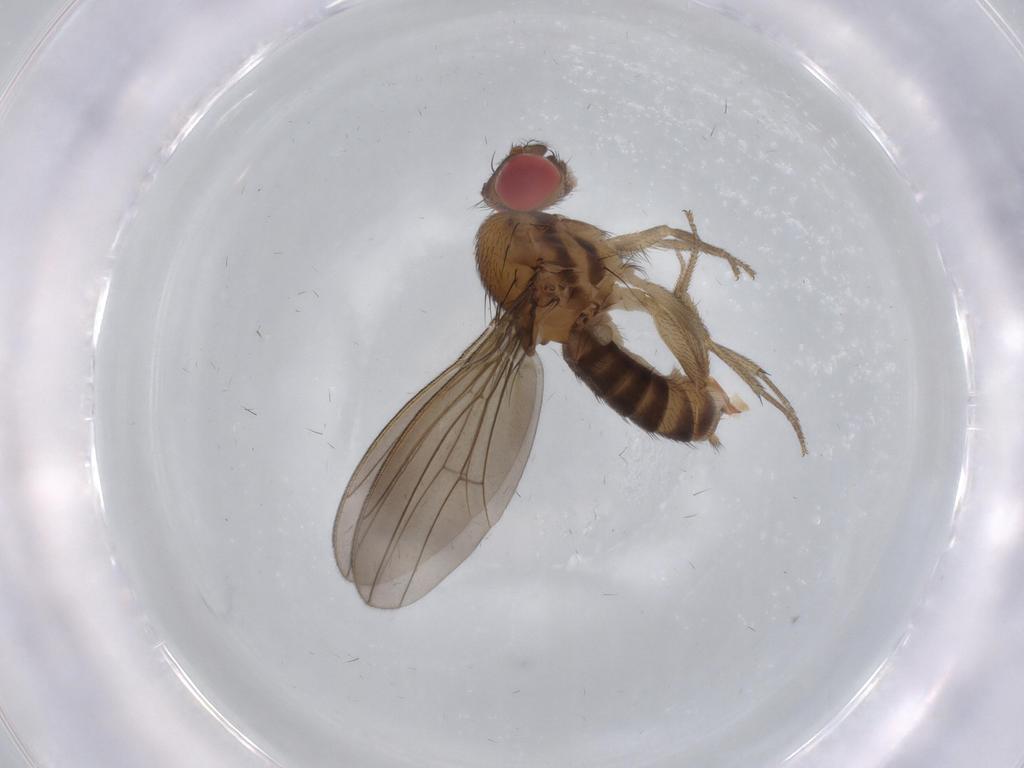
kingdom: Animalia
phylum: Arthropoda
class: Insecta
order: Diptera
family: Drosophilidae
